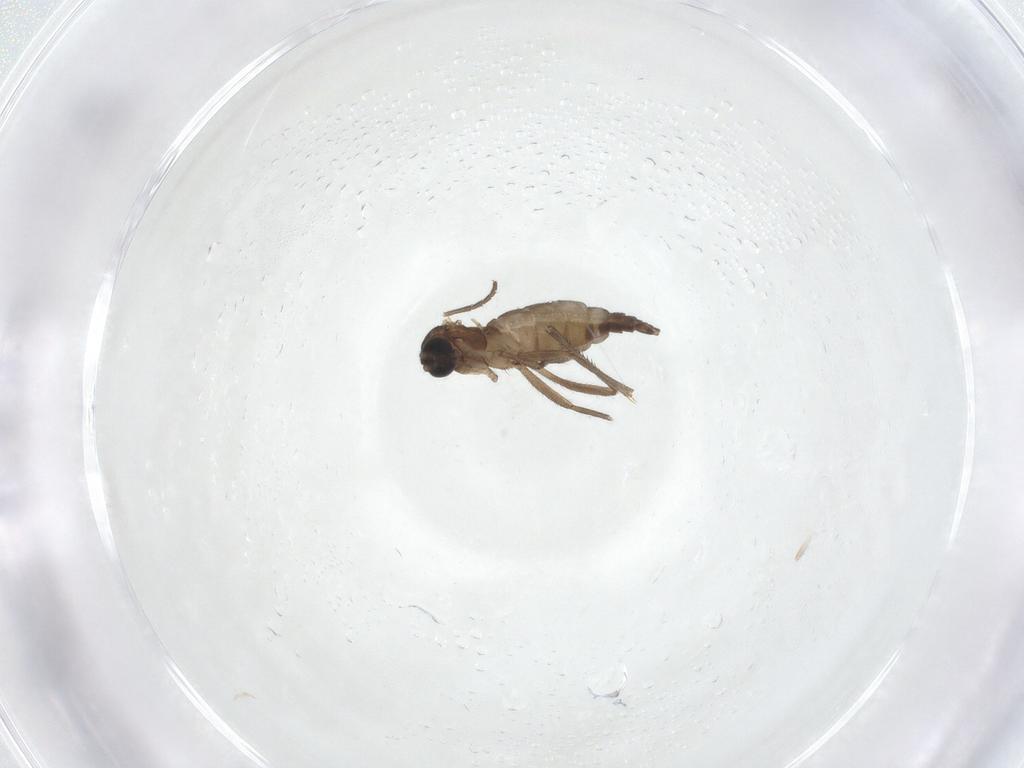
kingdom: Animalia
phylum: Arthropoda
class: Insecta
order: Diptera
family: Sciaridae
